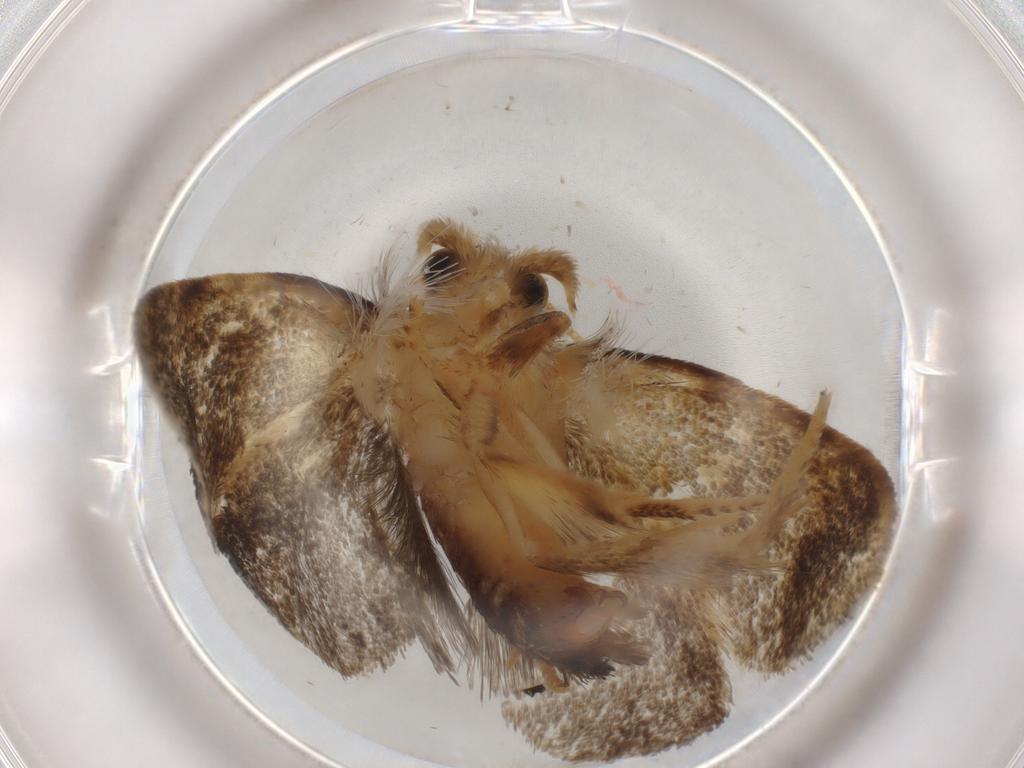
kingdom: Animalia
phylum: Arthropoda
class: Insecta
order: Lepidoptera
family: Tineidae
